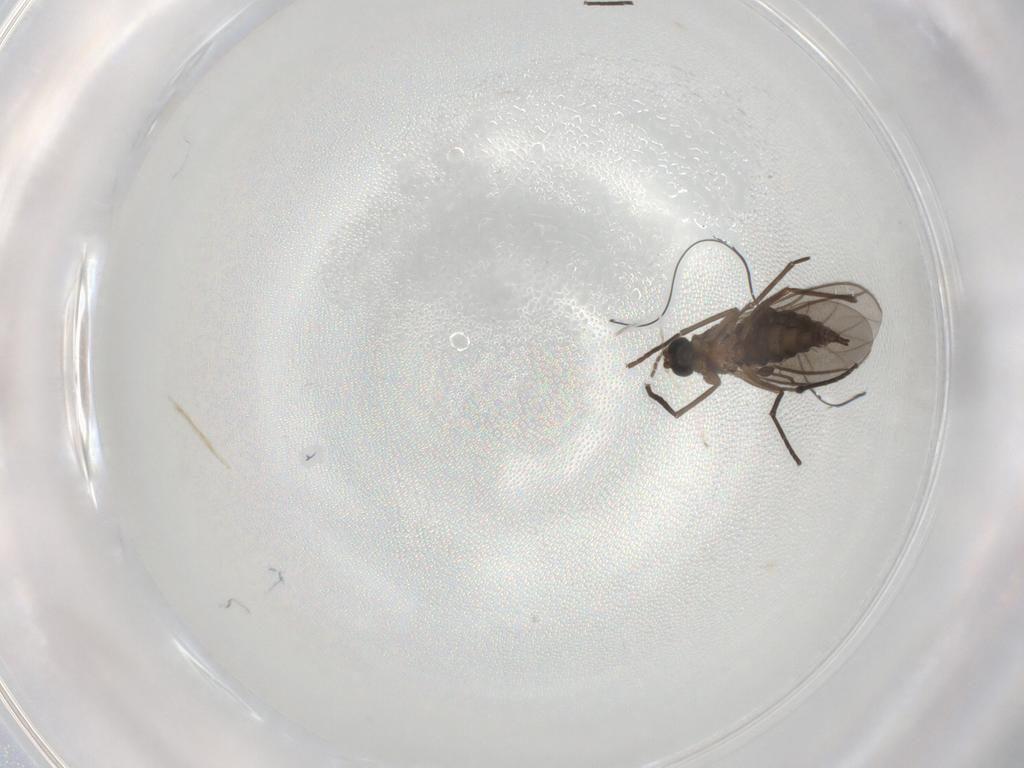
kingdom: Animalia
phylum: Arthropoda
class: Insecta
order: Diptera
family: Sciaridae
